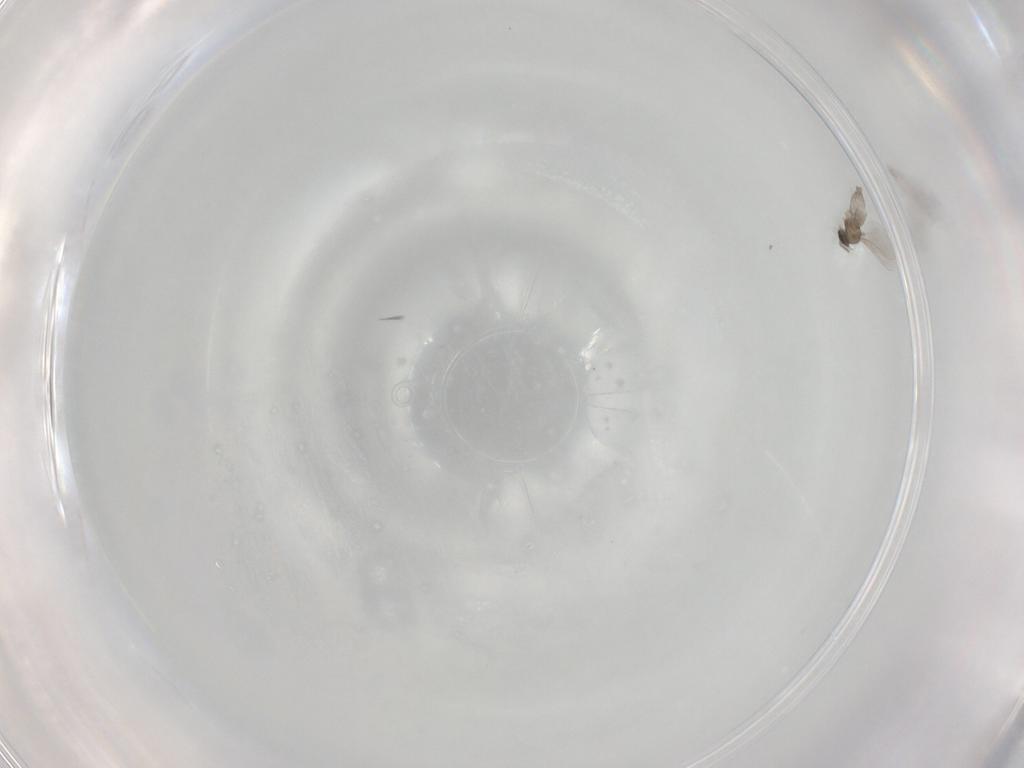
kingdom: Animalia
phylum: Arthropoda
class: Insecta
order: Diptera
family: Cecidomyiidae
